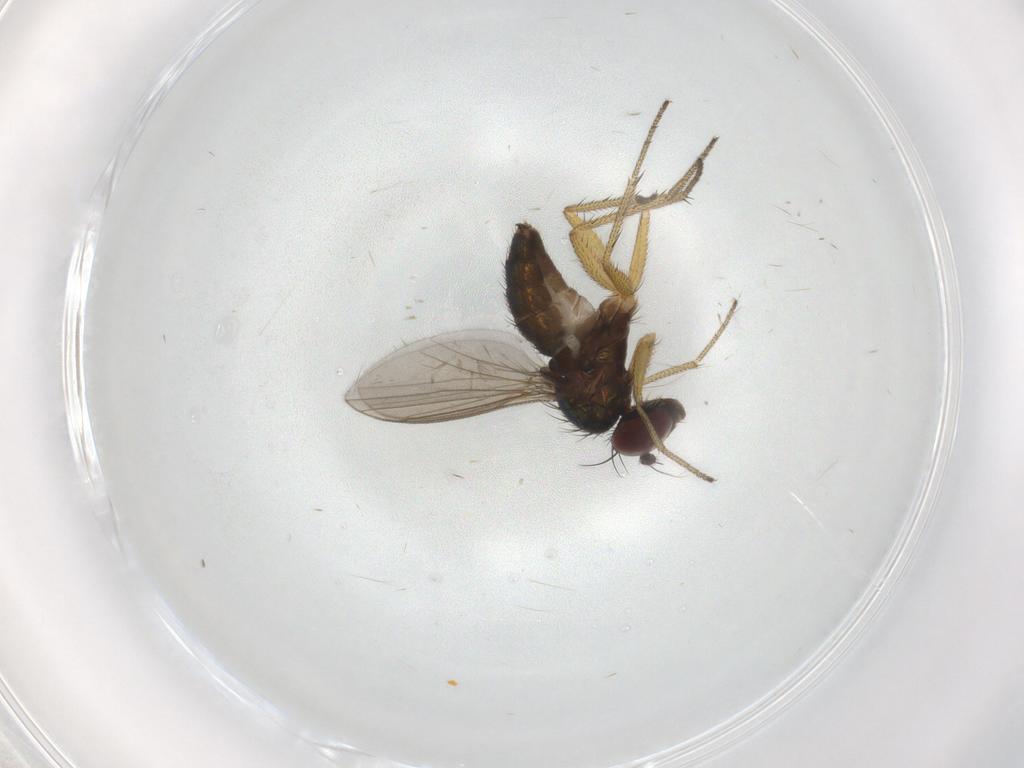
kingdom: Animalia
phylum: Arthropoda
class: Insecta
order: Diptera
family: Dolichopodidae
